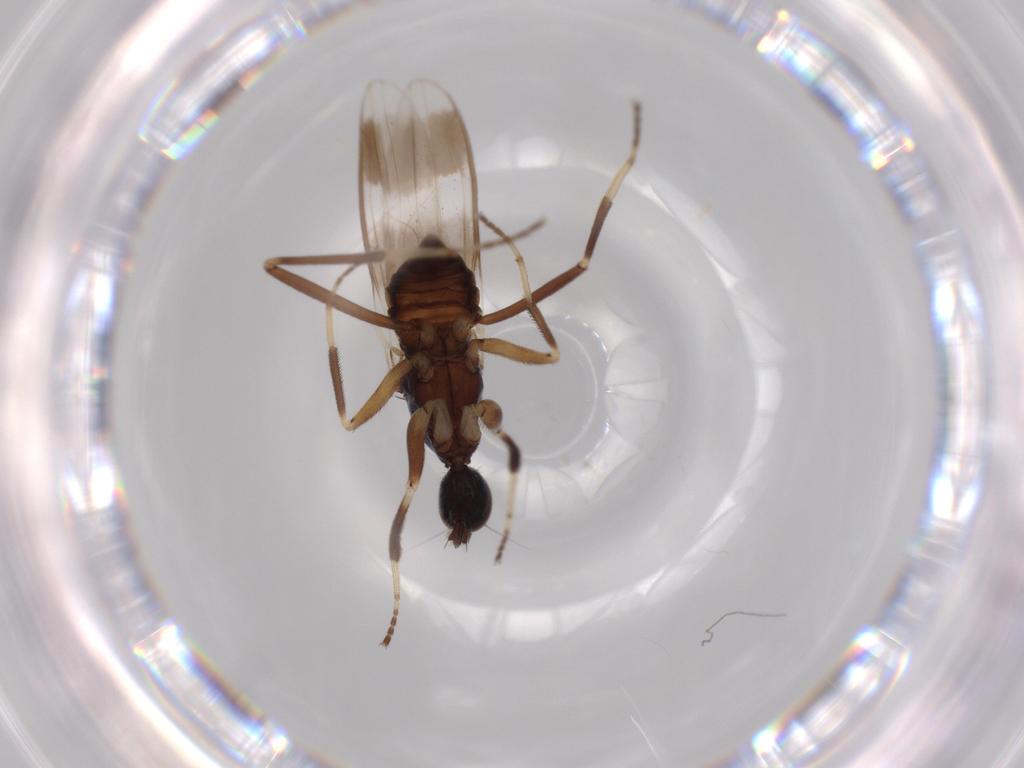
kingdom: Animalia
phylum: Arthropoda
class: Insecta
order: Diptera
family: Hybotidae
